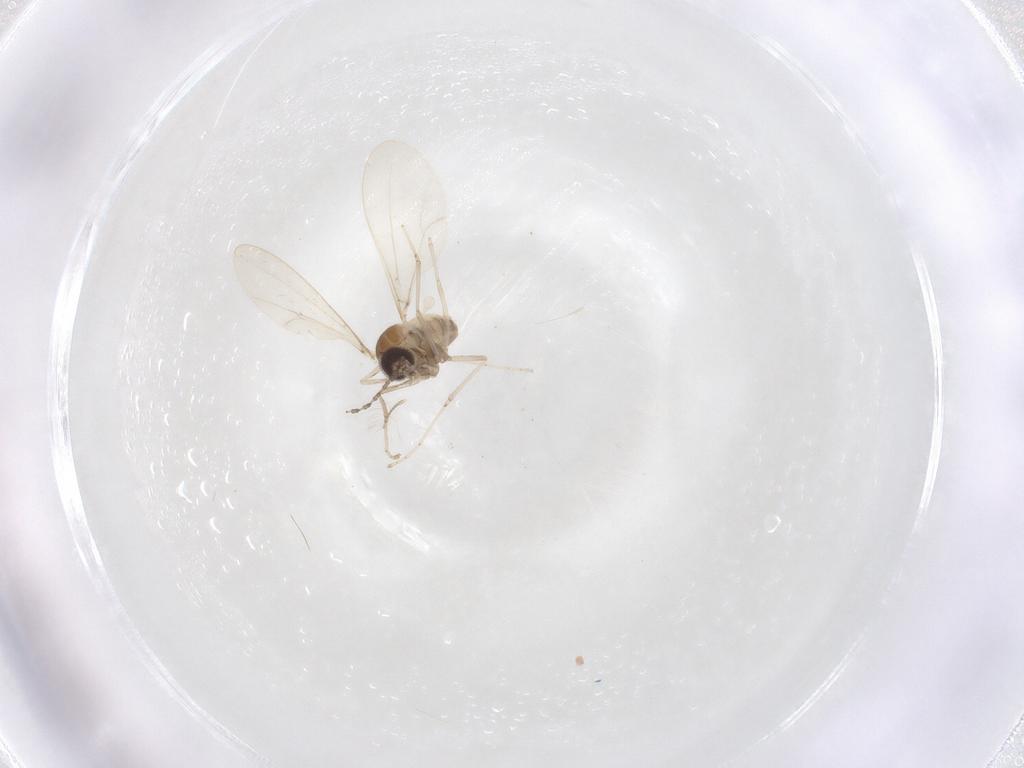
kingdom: Animalia
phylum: Arthropoda
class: Insecta
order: Diptera
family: Cecidomyiidae
